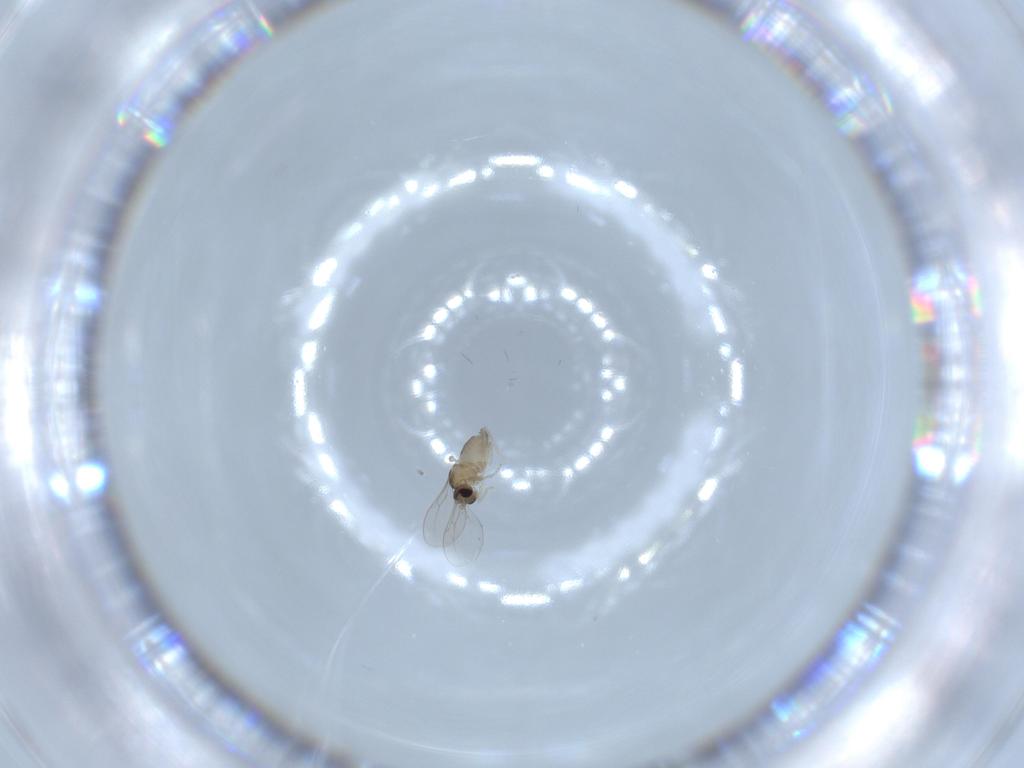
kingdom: Animalia
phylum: Arthropoda
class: Insecta
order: Diptera
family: Cecidomyiidae
